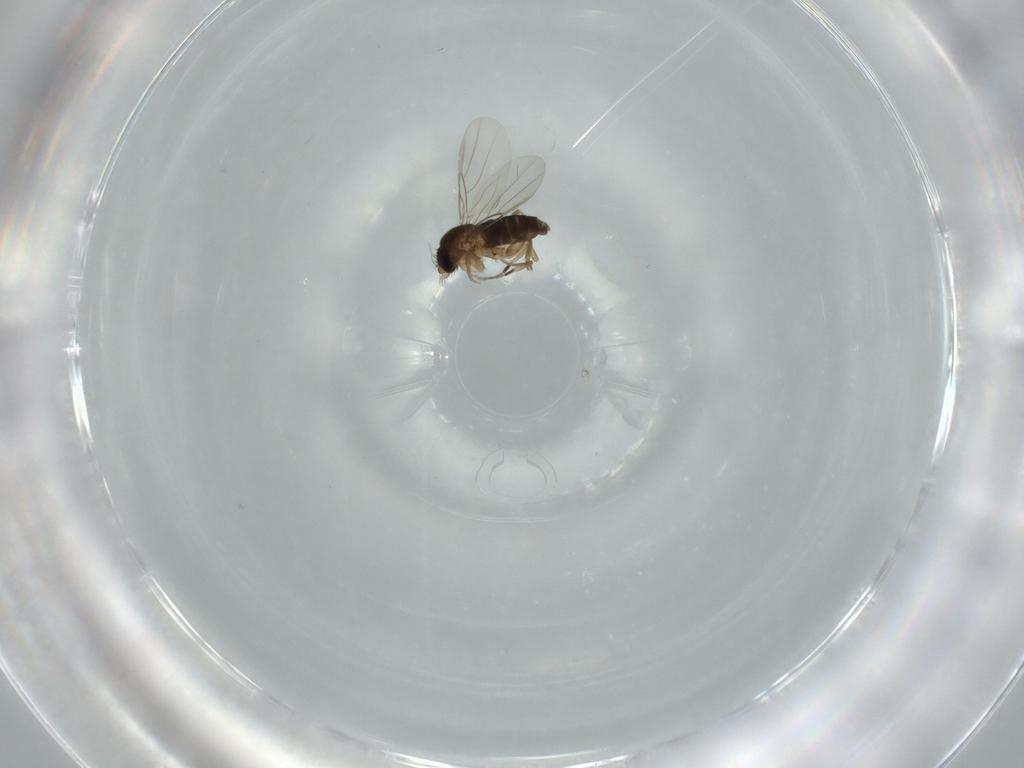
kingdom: Animalia
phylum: Arthropoda
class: Insecta
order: Diptera
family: Phoridae
